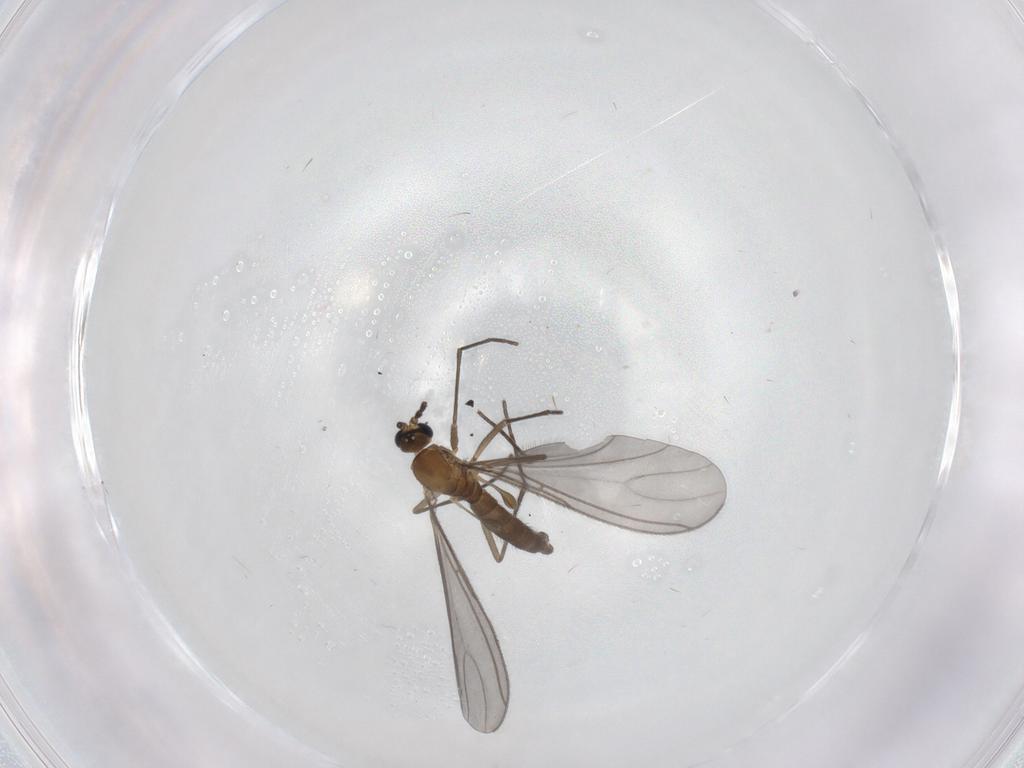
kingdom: Animalia
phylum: Arthropoda
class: Insecta
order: Diptera
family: Sciaridae
